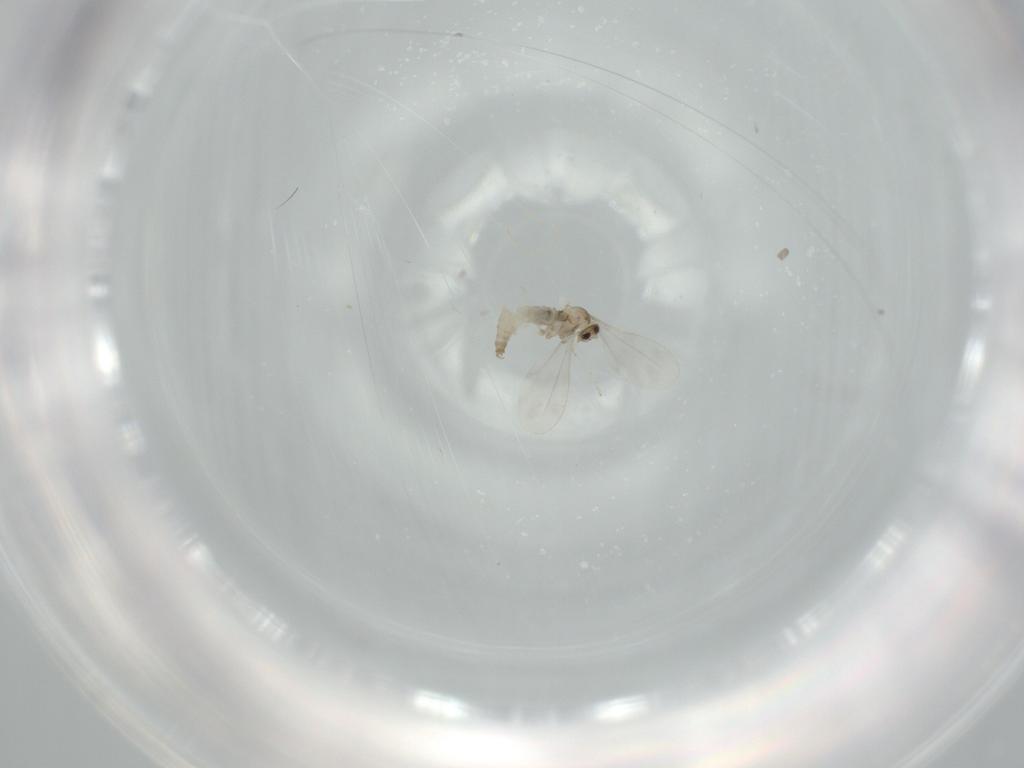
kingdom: Animalia
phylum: Arthropoda
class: Insecta
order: Diptera
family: Cecidomyiidae
